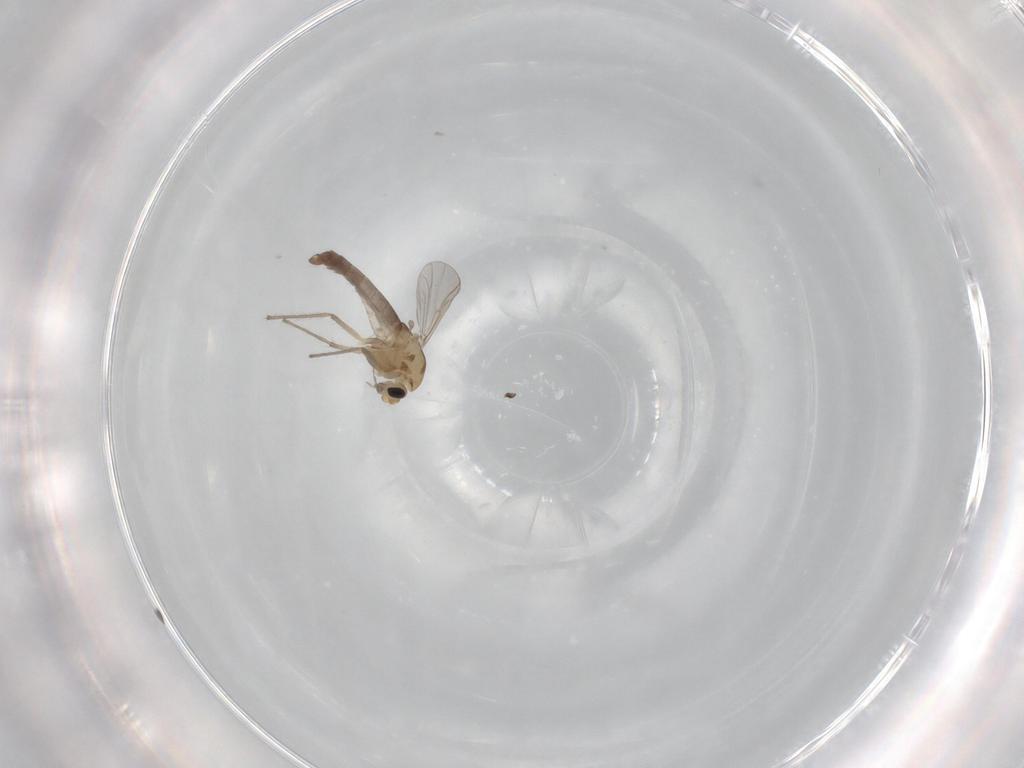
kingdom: Animalia
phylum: Arthropoda
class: Insecta
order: Diptera
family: Chironomidae
